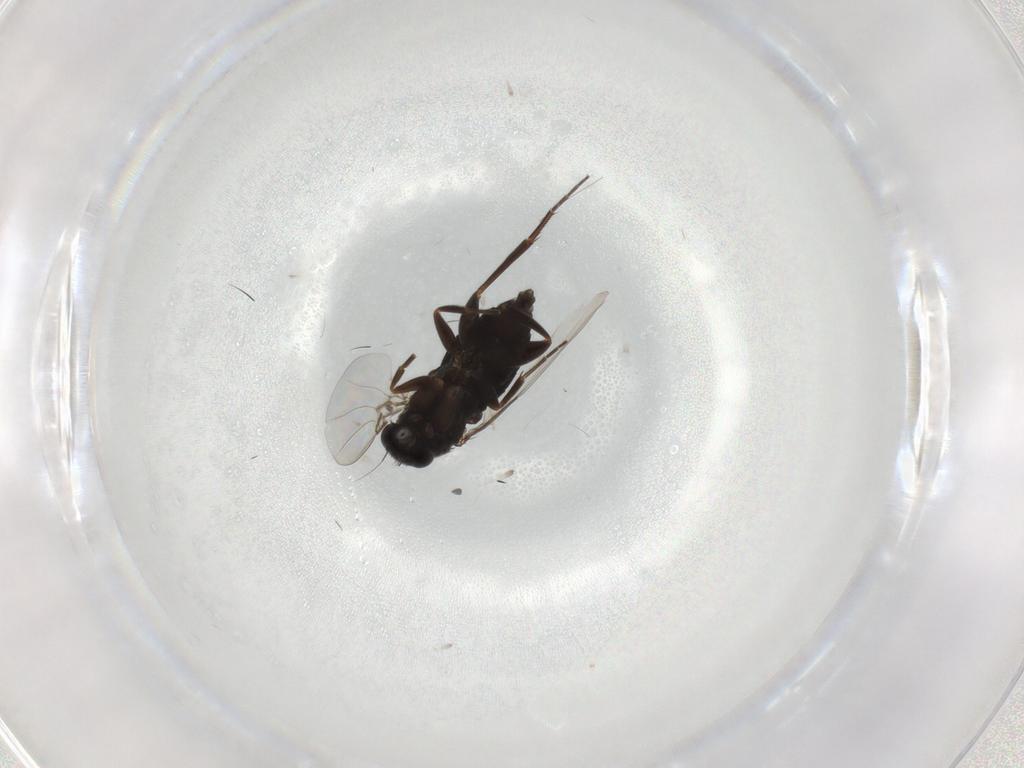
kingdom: Animalia
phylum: Arthropoda
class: Insecta
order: Diptera
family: Phoridae
